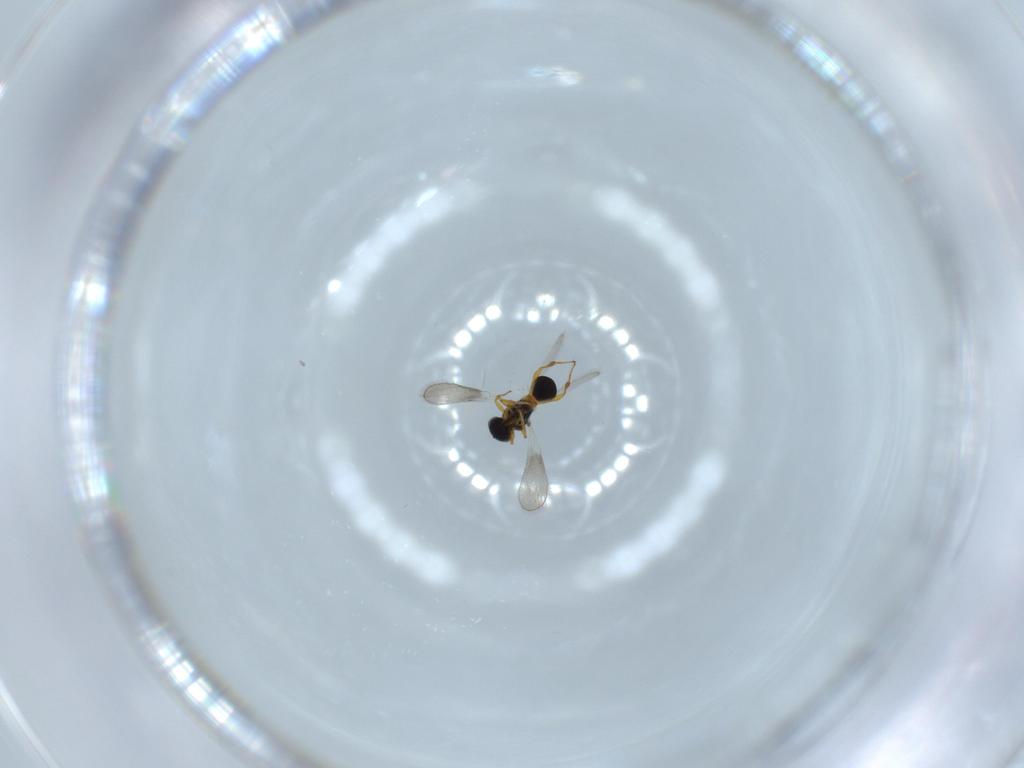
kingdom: Animalia
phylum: Arthropoda
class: Insecta
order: Hymenoptera
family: Platygastridae
